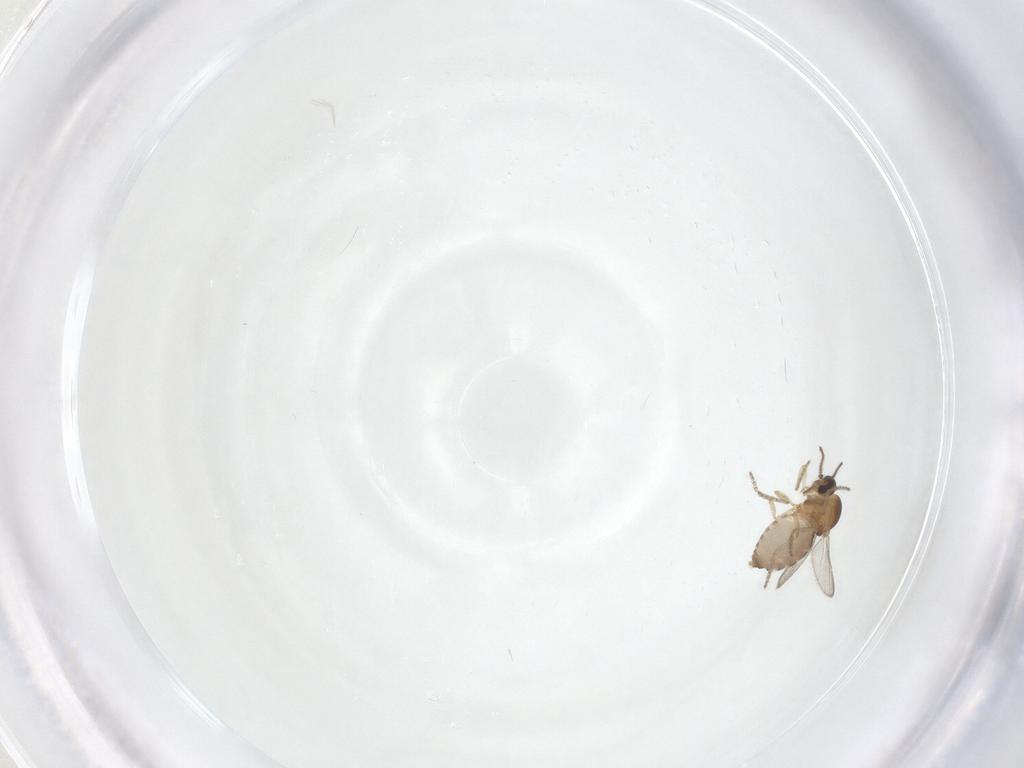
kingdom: Animalia
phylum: Arthropoda
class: Insecta
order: Diptera
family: Ceratopogonidae
